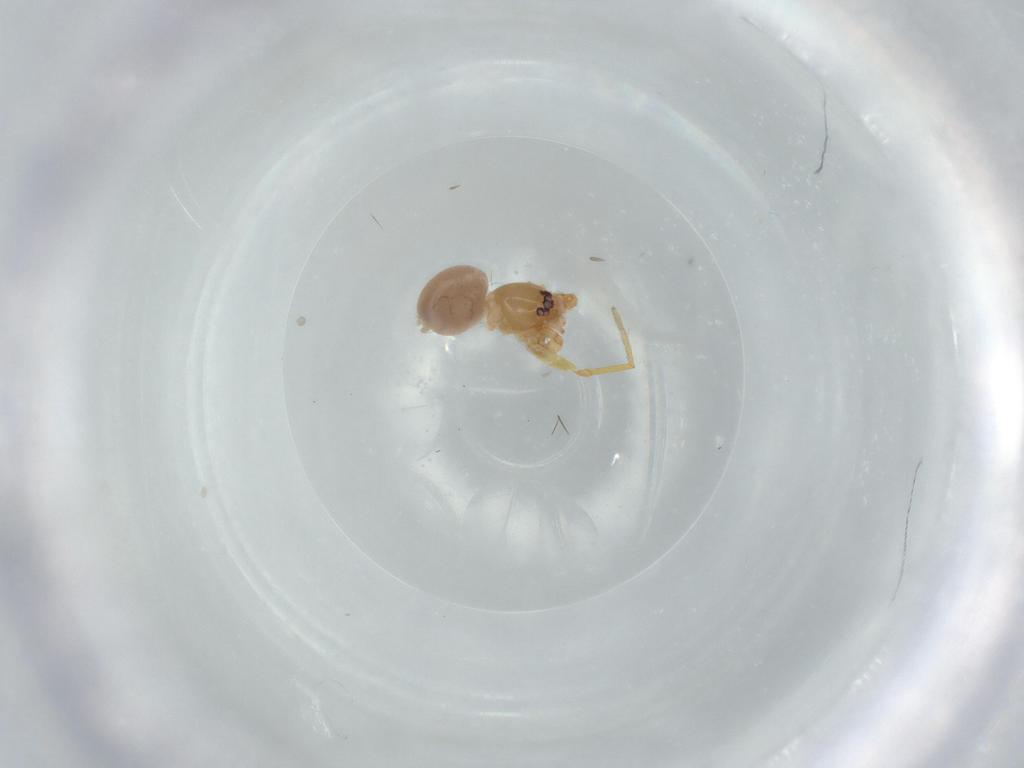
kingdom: Animalia
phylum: Arthropoda
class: Arachnida
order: Araneae
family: Oonopidae
